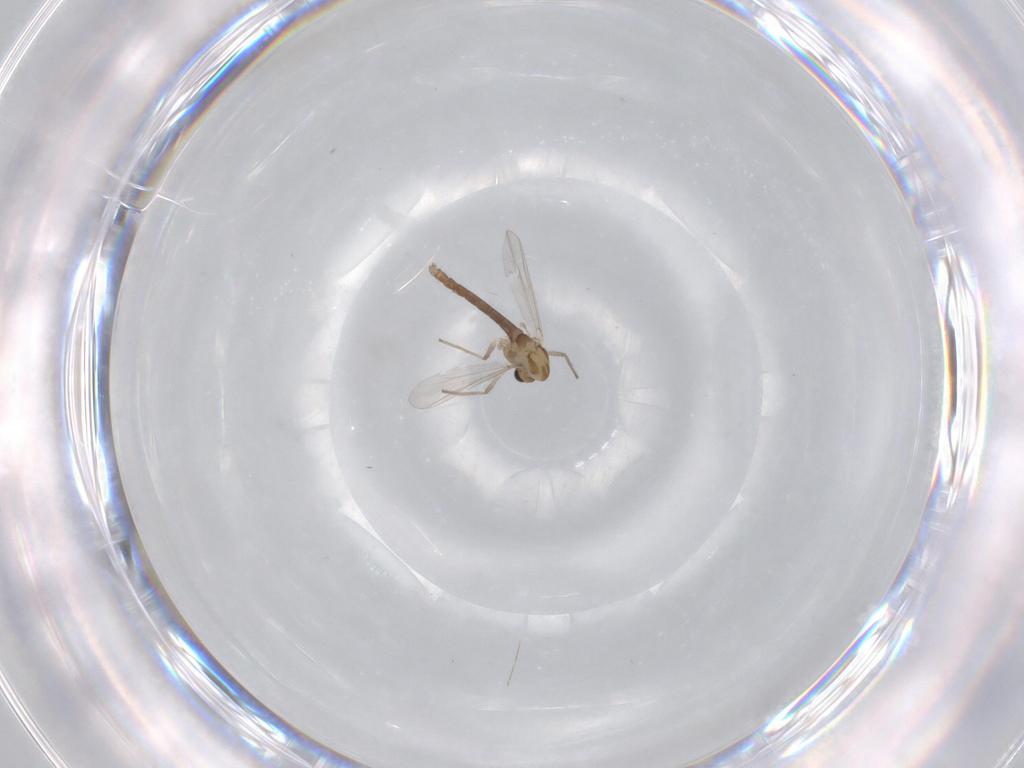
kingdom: Animalia
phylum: Arthropoda
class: Insecta
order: Diptera
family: Chironomidae
